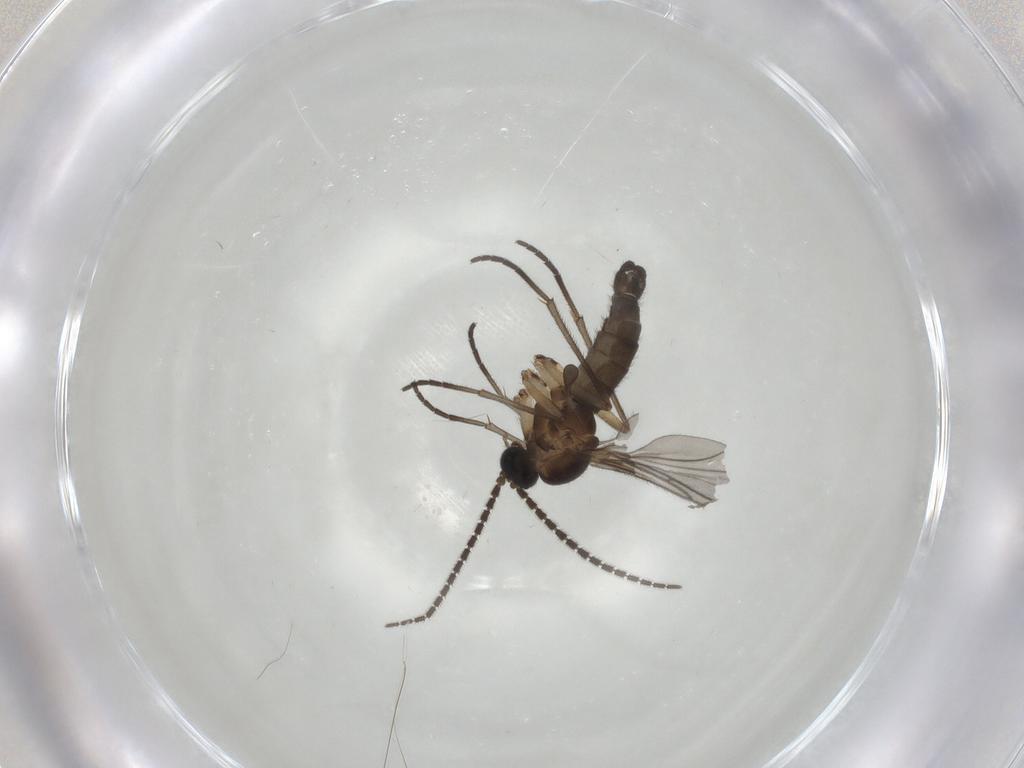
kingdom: Animalia
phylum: Arthropoda
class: Insecta
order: Diptera
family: Sciaridae
